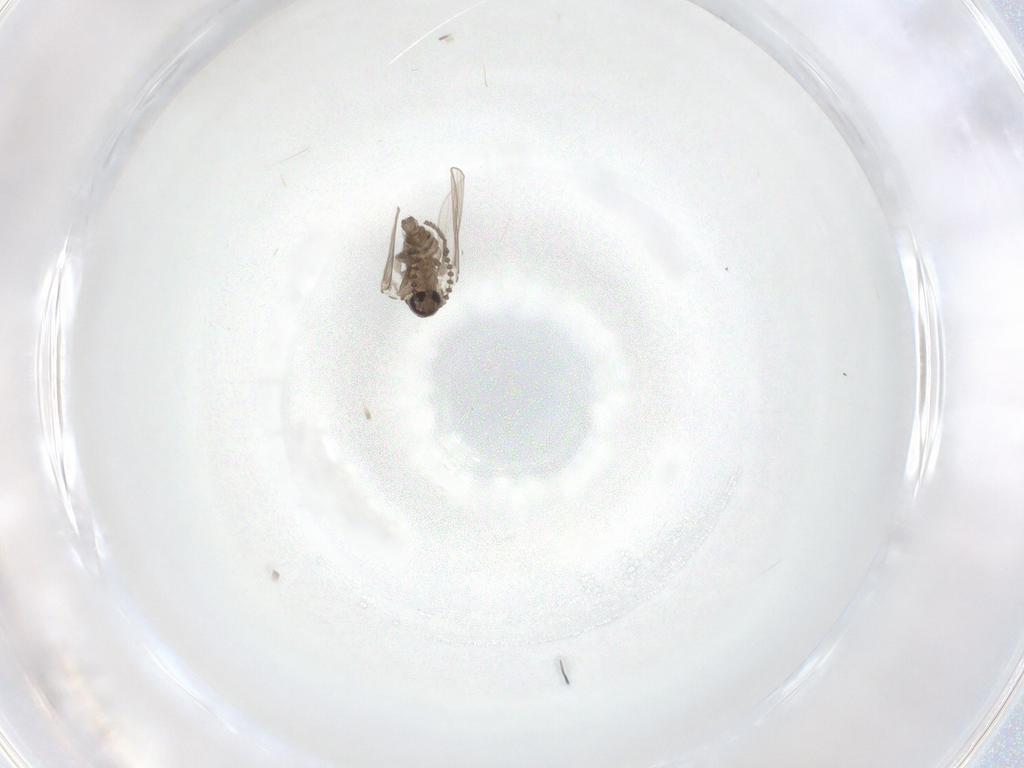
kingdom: Animalia
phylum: Arthropoda
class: Insecta
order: Diptera
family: Psychodidae
